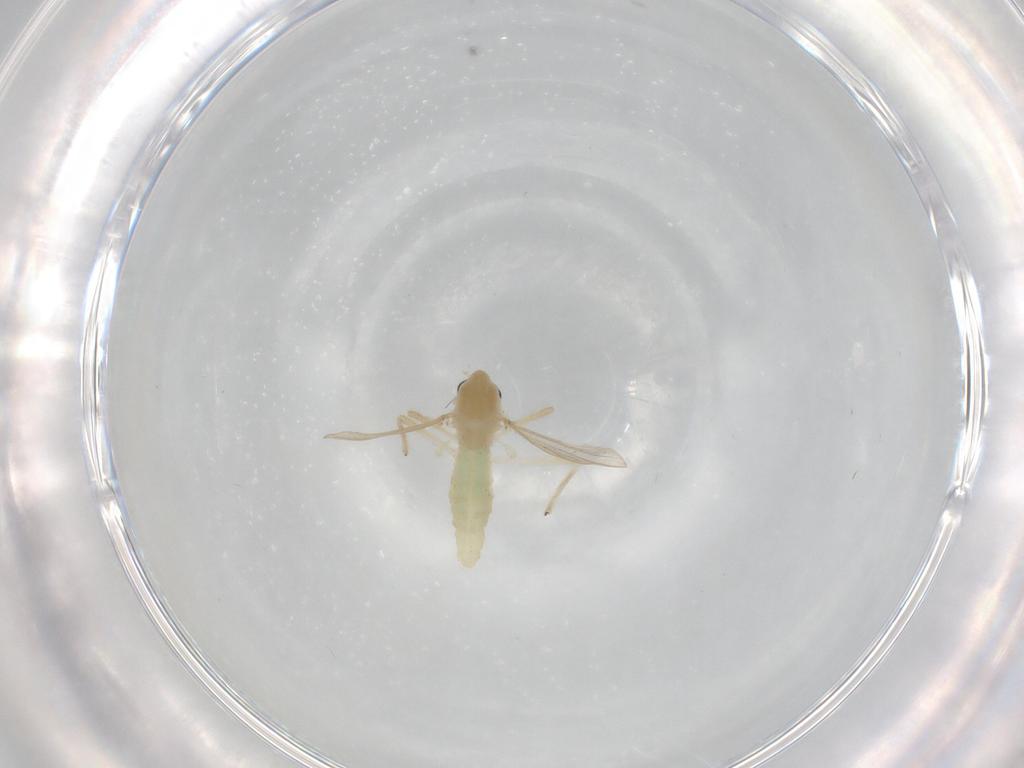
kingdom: Animalia
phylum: Arthropoda
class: Insecta
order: Diptera
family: Chironomidae
